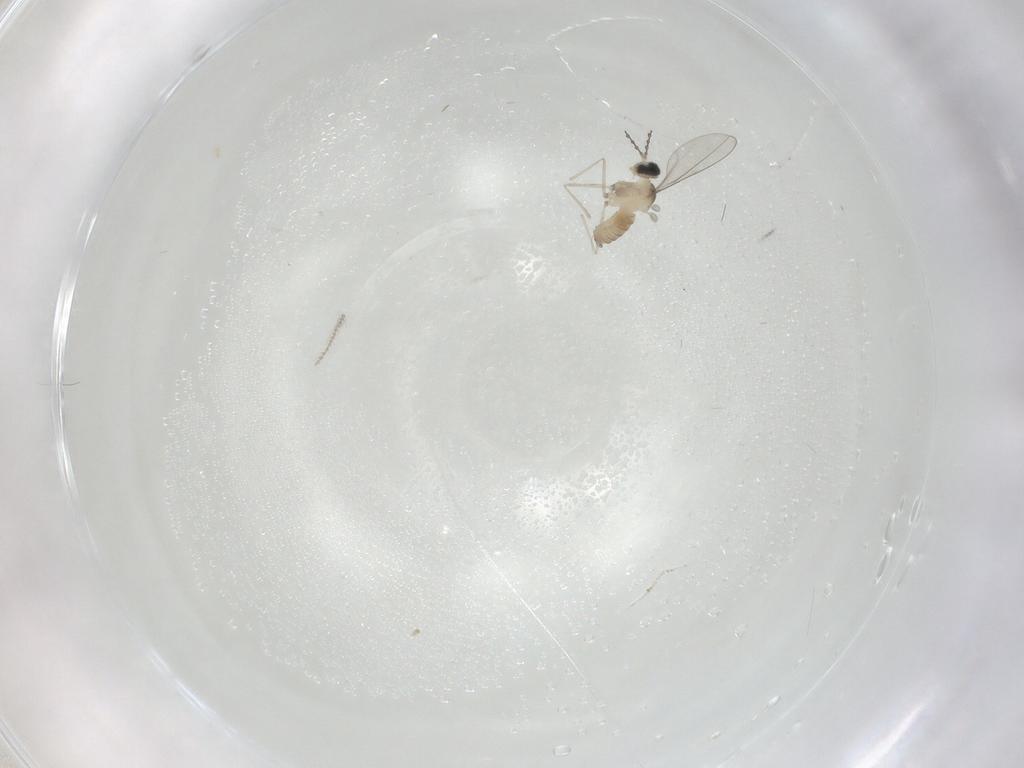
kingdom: Animalia
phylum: Arthropoda
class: Insecta
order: Diptera
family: Cecidomyiidae
